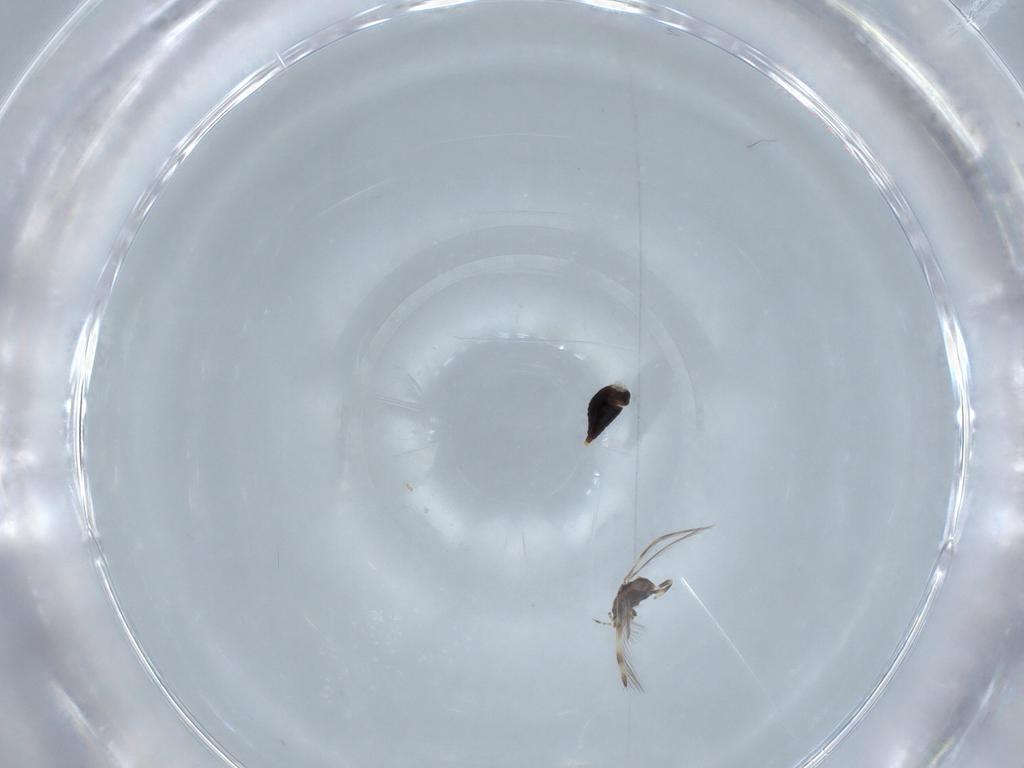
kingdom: Animalia
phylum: Arthropoda
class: Insecta
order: Thysanoptera
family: Thripidae
